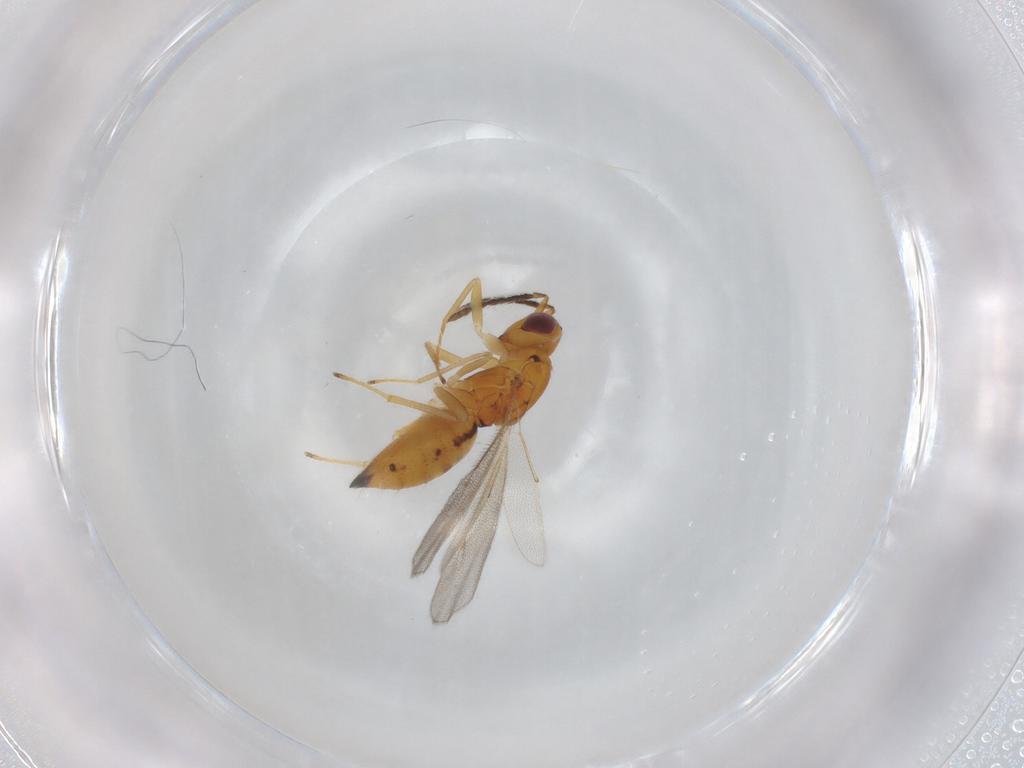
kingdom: Animalia
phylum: Arthropoda
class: Insecta
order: Hymenoptera
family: Eulophidae
